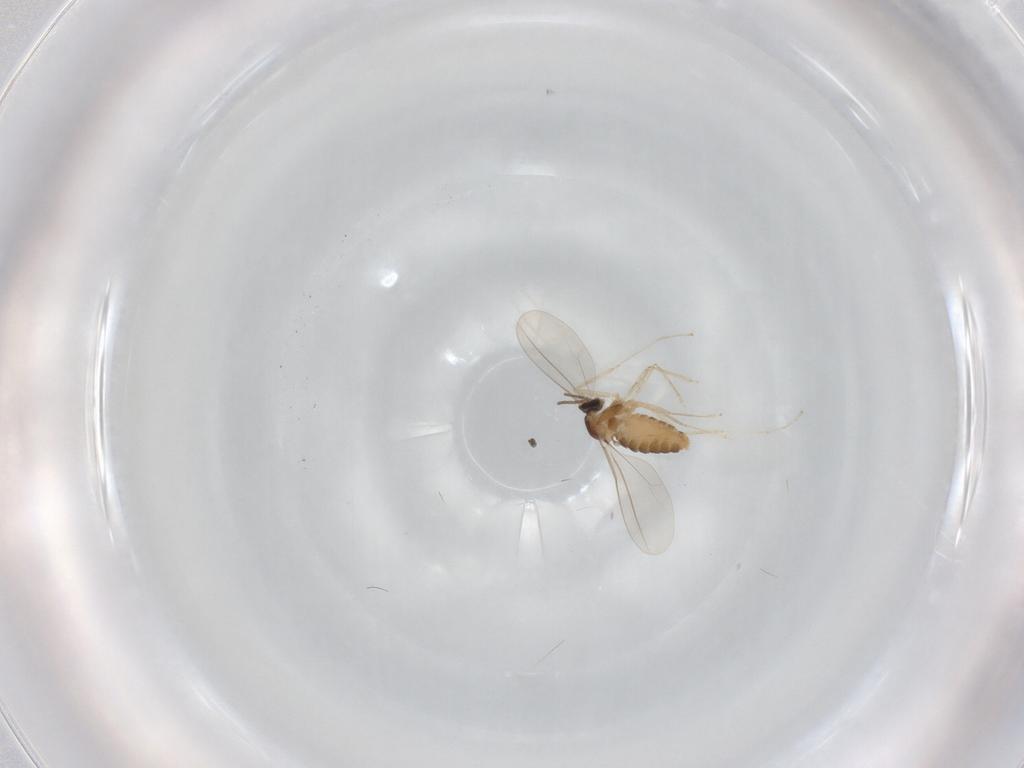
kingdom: Animalia
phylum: Arthropoda
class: Insecta
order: Diptera
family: Cecidomyiidae
